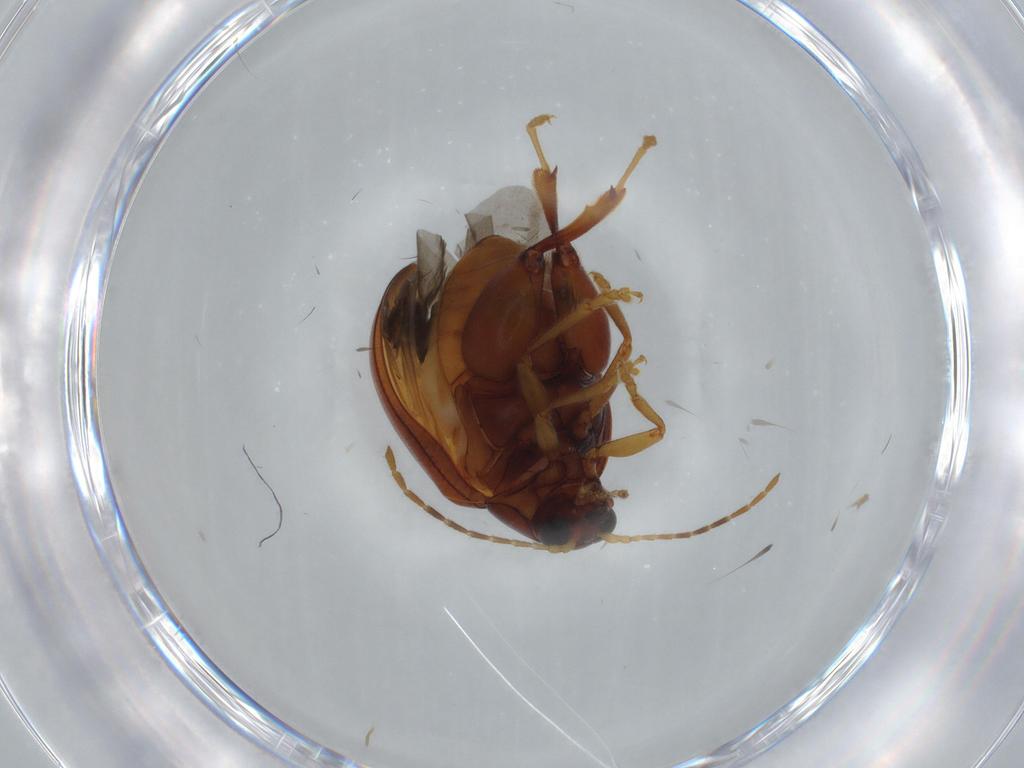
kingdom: Animalia
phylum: Arthropoda
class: Insecta
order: Coleoptera
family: Chrysomelidae
